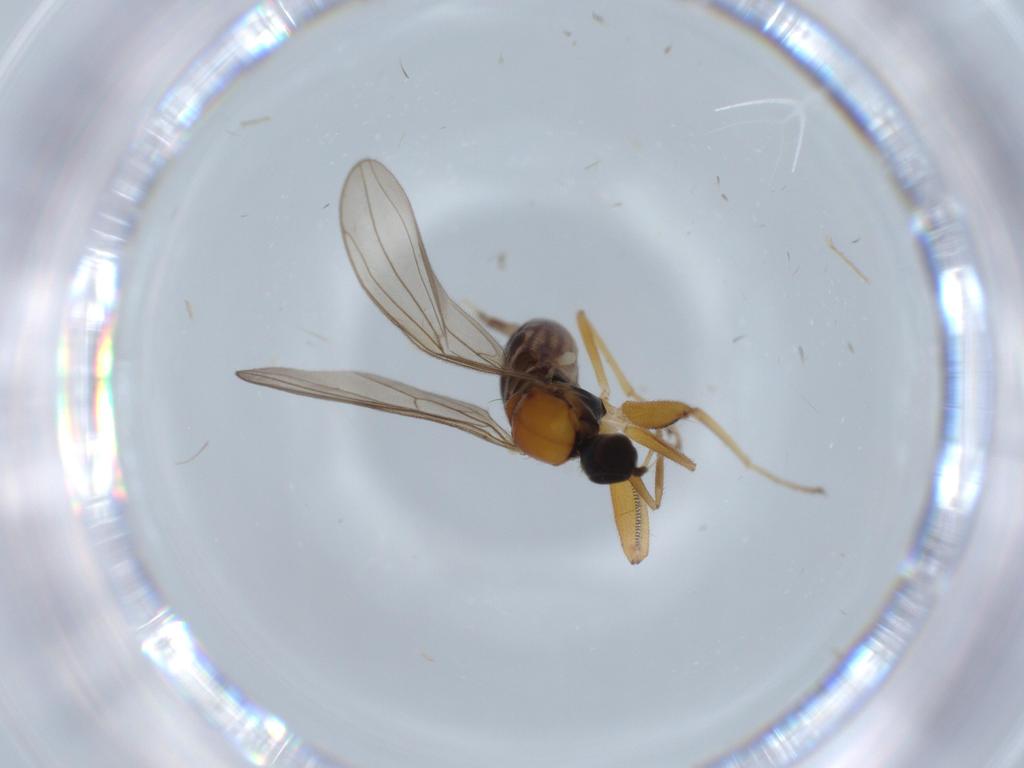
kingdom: Animalia
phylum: Arthropoda
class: Insecta
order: Diptera
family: Hybotidae
